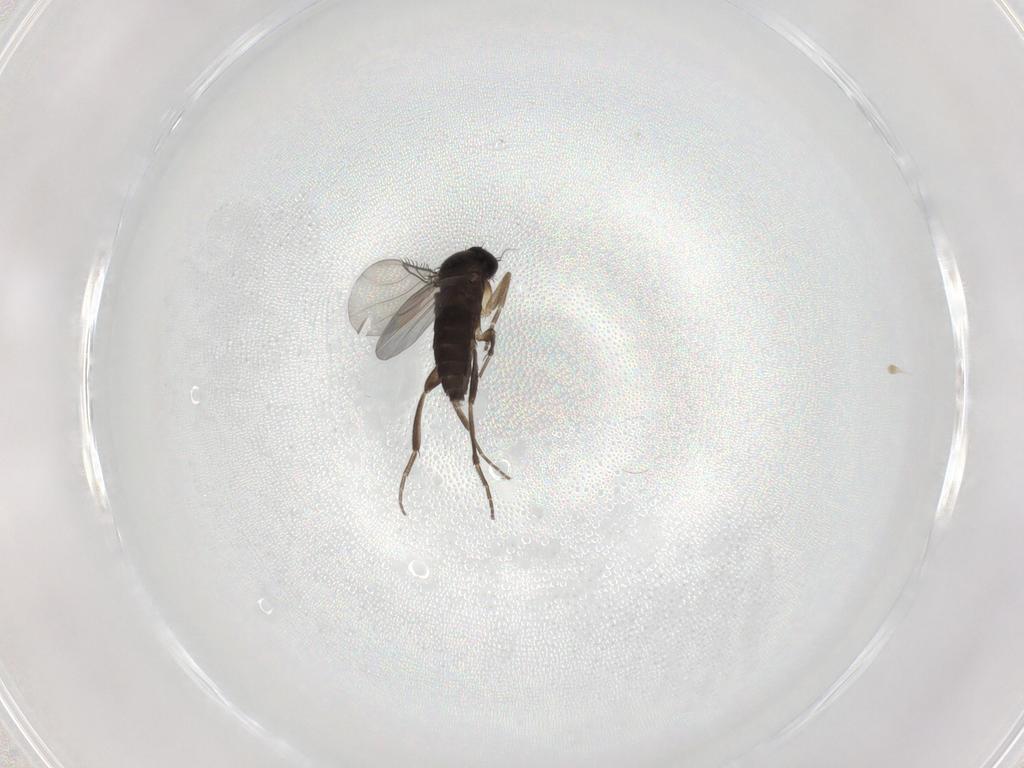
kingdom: Animalia
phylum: Arthropoda
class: Insecta
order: Diptera
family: Phoridae
